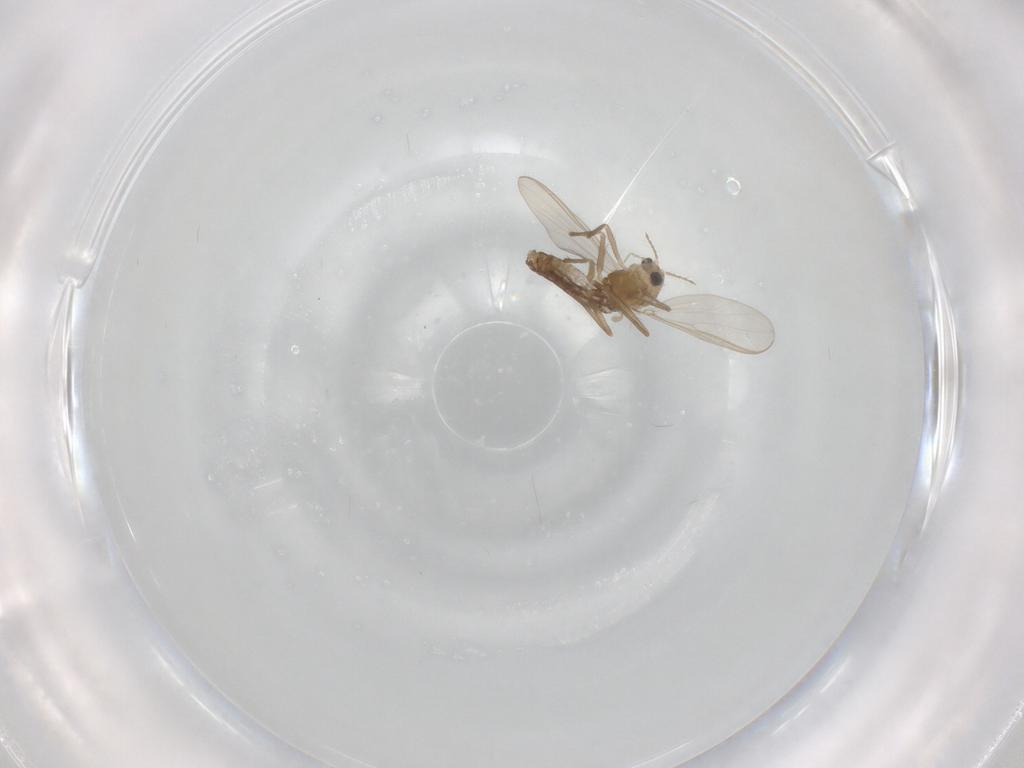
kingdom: Animalia
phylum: Arthropoda
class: Insecta
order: Diptera
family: Chironomidae
